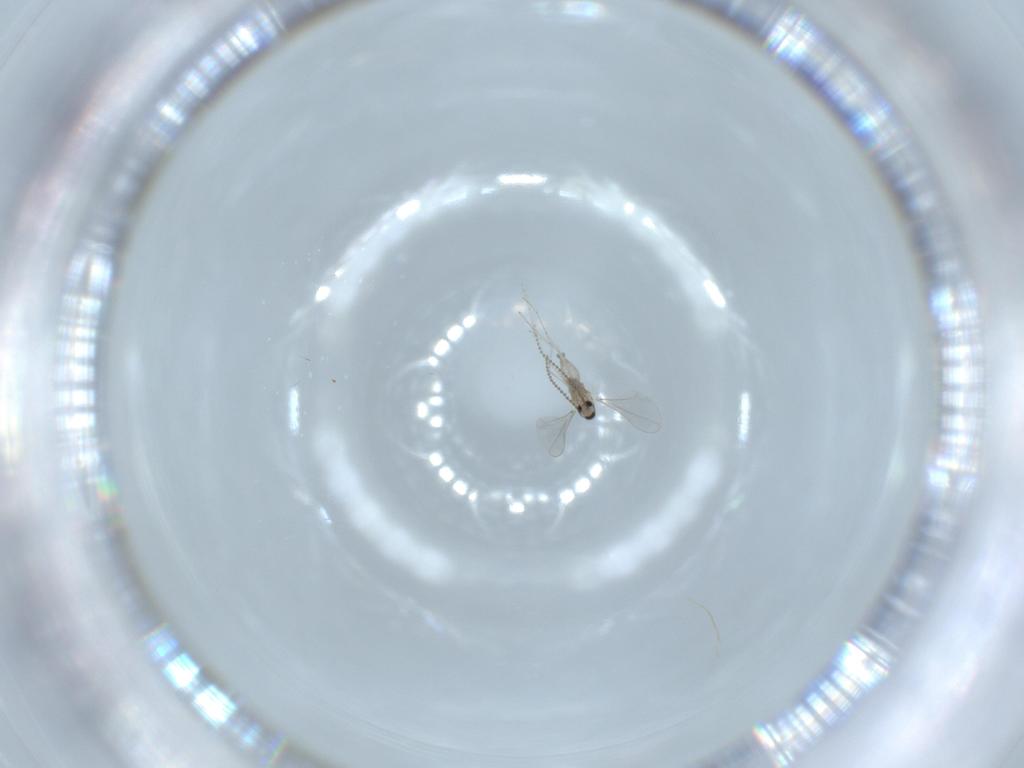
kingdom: Animalia
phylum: Arthropoda
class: Insecta
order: Diptera
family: Cecidomyiidae
